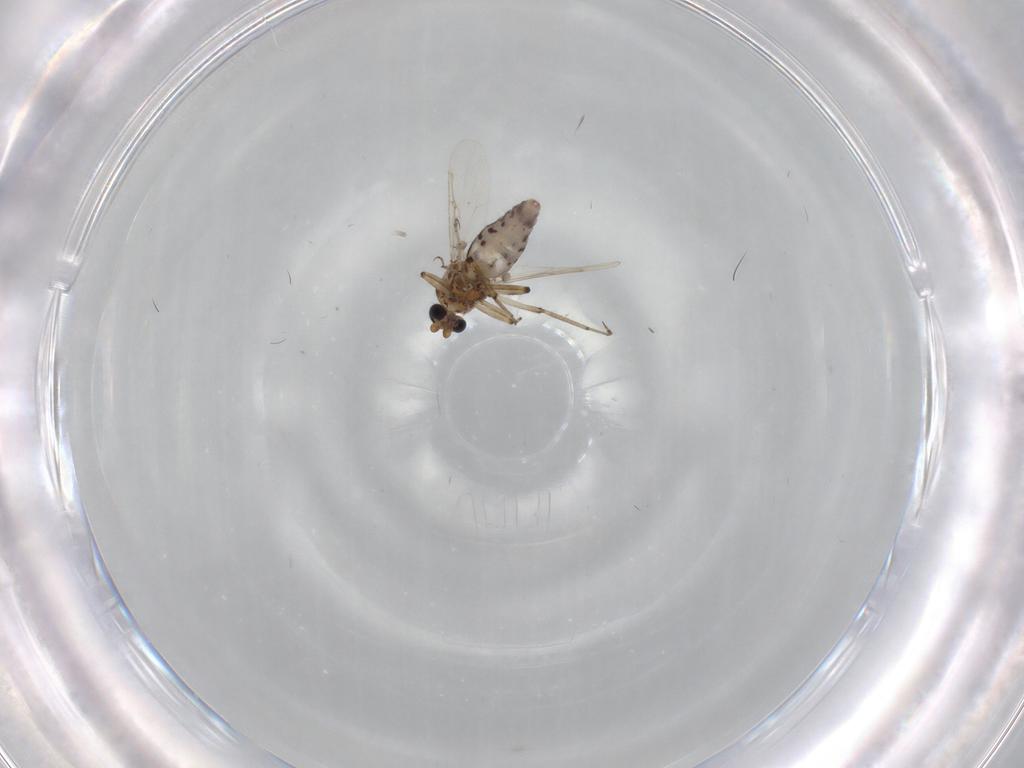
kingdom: Animalia
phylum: Arthropoda
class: Insecta
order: Diptera
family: Ceratopogonidae
